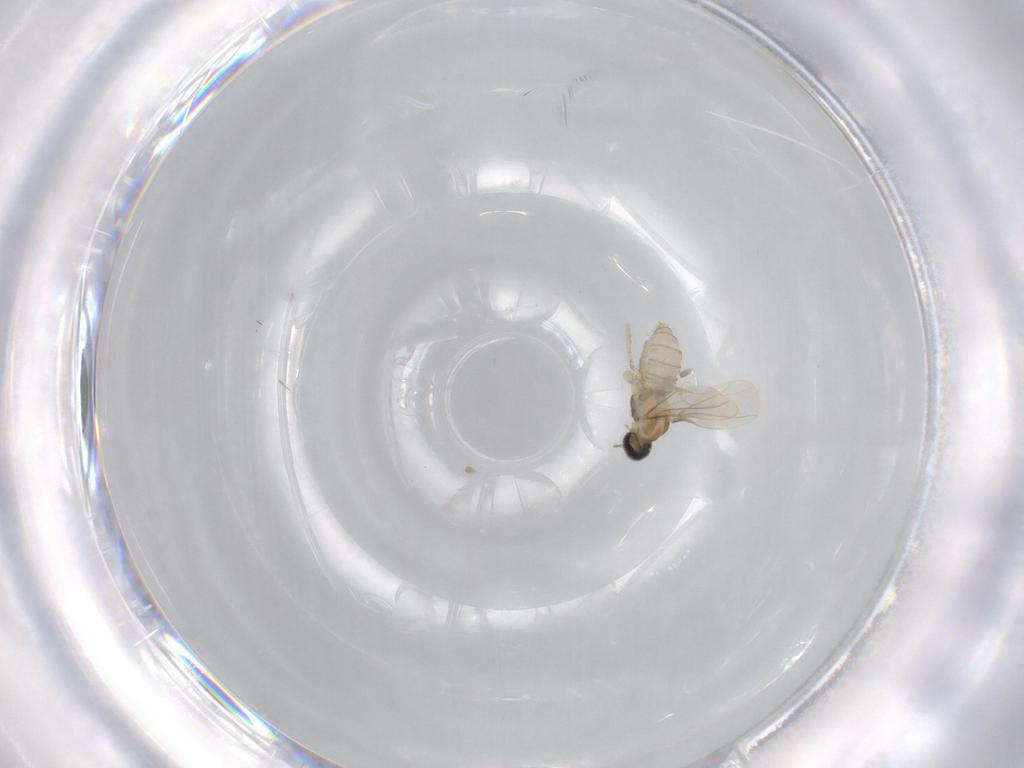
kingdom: Animalia
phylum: Arthropoda
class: Insecta
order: Diptera
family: Cecidomyiidae
